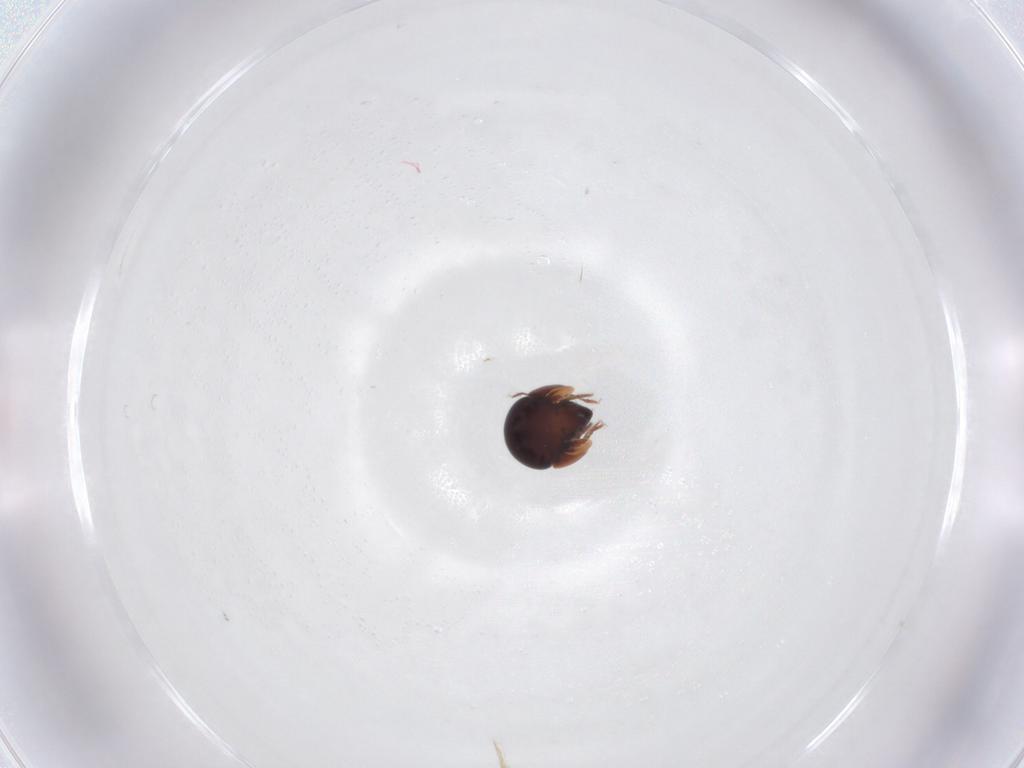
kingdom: Animalia
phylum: Arthropoda
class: Arachnida
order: Sarcoptiformes
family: Galumnidae
